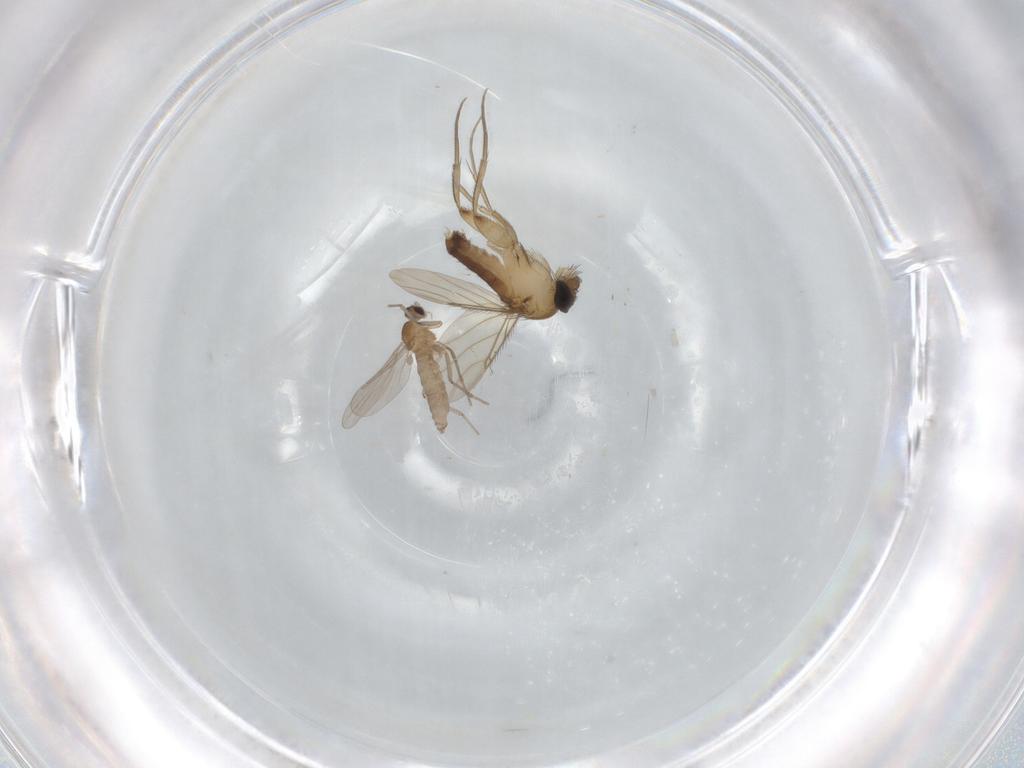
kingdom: Animalia
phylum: Arthropoda
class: Insecta
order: Diptera
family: Phoridae
